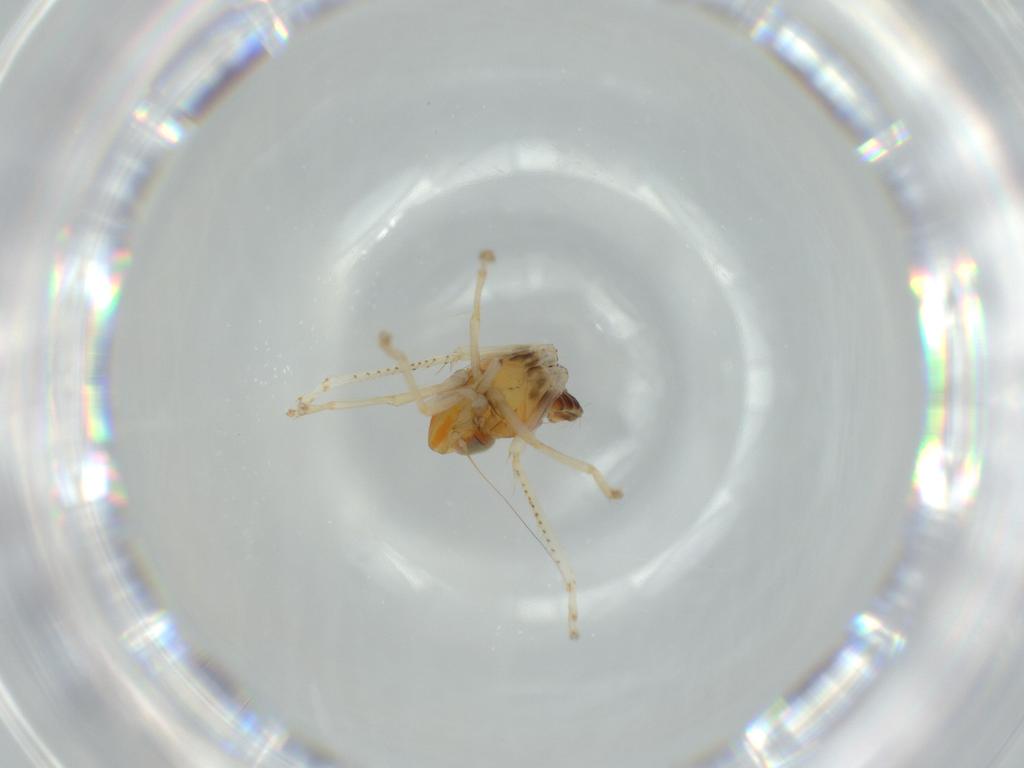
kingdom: Animalia
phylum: Arthropoda
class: Insecta
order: Hemiptera
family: Cicadellidae
